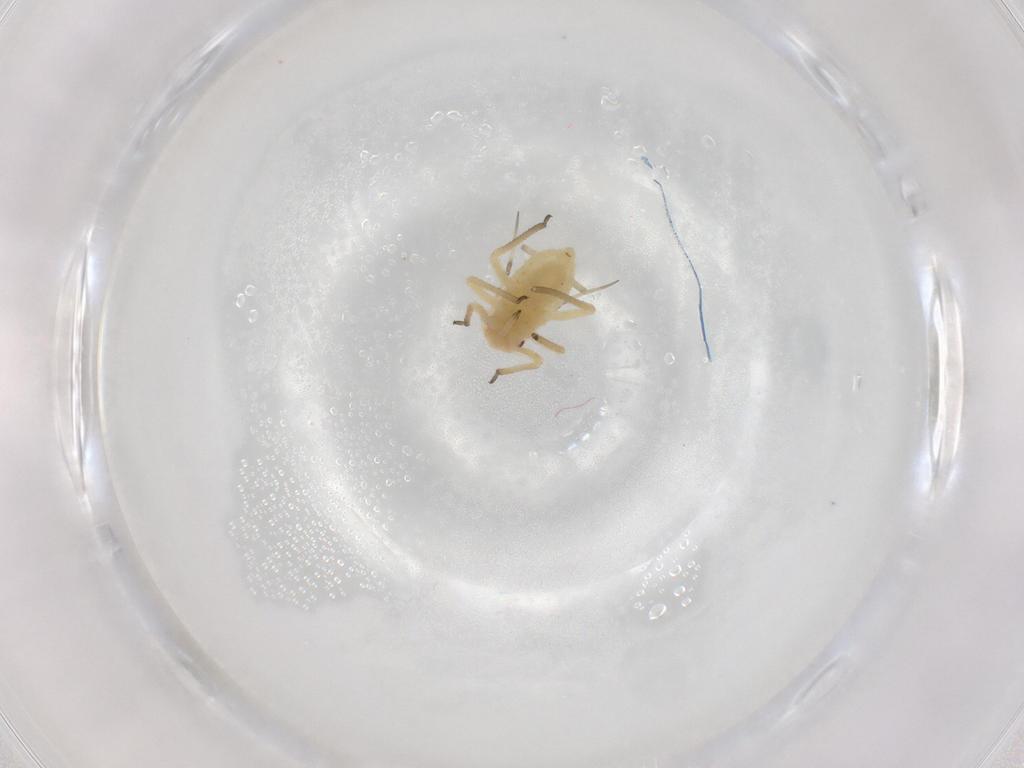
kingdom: Animalia
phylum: Arthropoda
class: Insecta
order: Hemiptera
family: Aphididae
